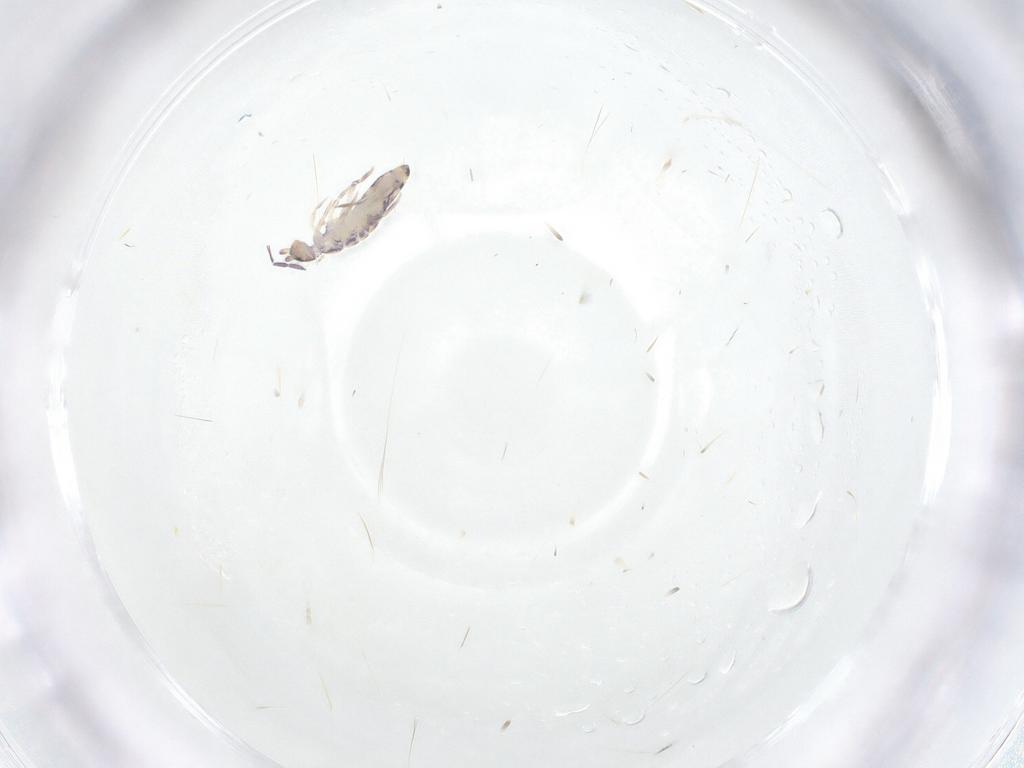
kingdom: Animalia
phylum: Arthropoda
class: Collembola
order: Entomobryomorpha
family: Entomobryidae
